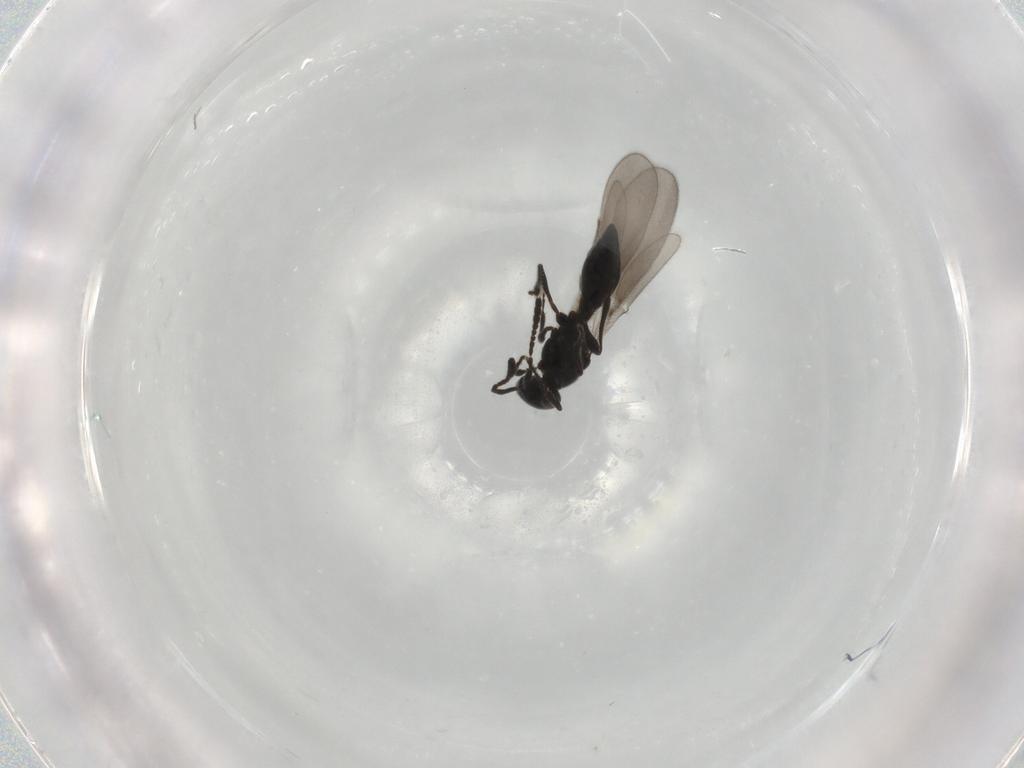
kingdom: Animalia
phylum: Arthropoda
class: Insecta
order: Hymenoptera
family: Platygastridae
